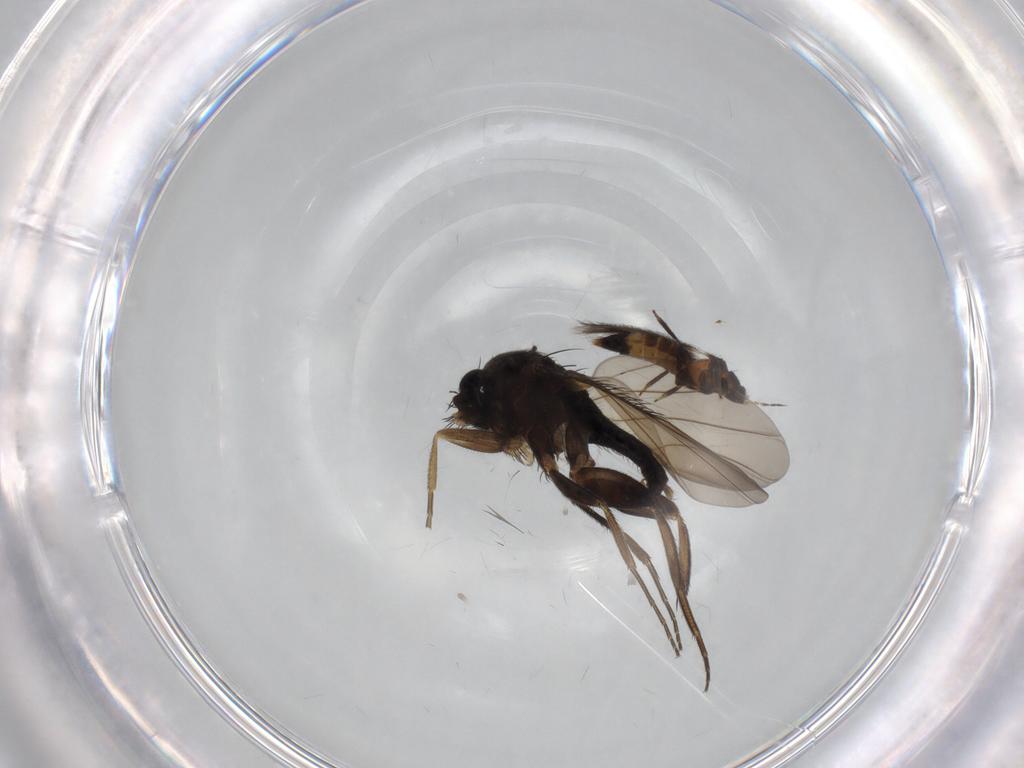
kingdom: Animalia
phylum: Arthropoda
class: Insecta
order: Diptera
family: Phoridae
